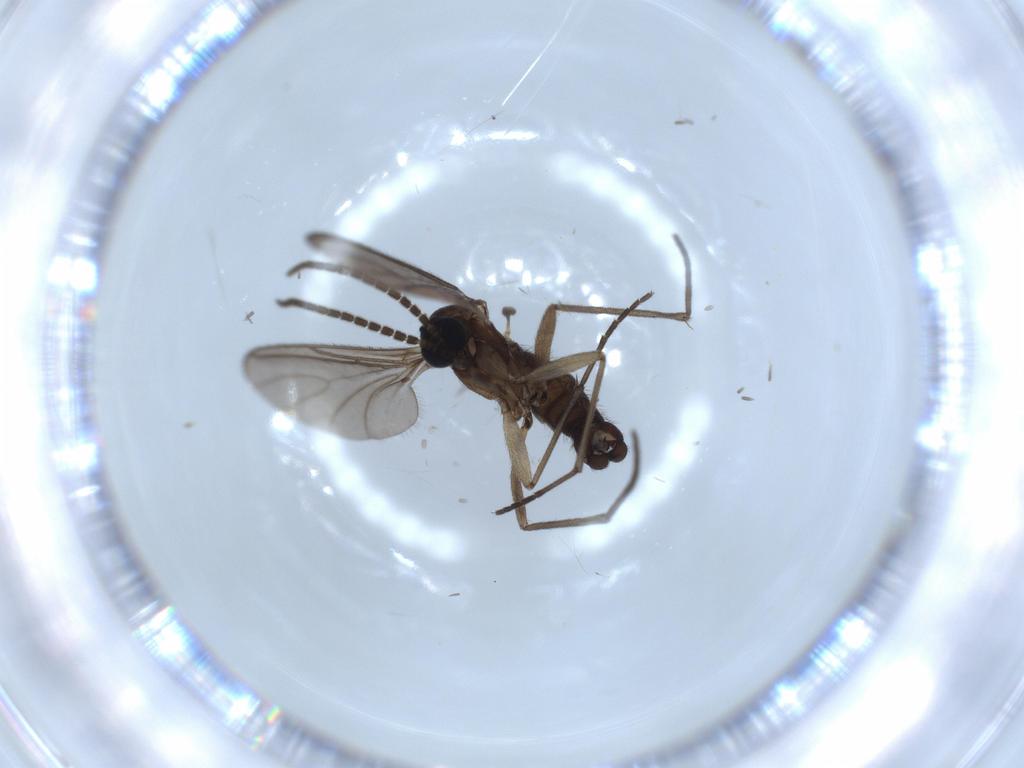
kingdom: Animalia
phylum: Arthropoda
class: Insecta
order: Diptera
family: Sciaridae
